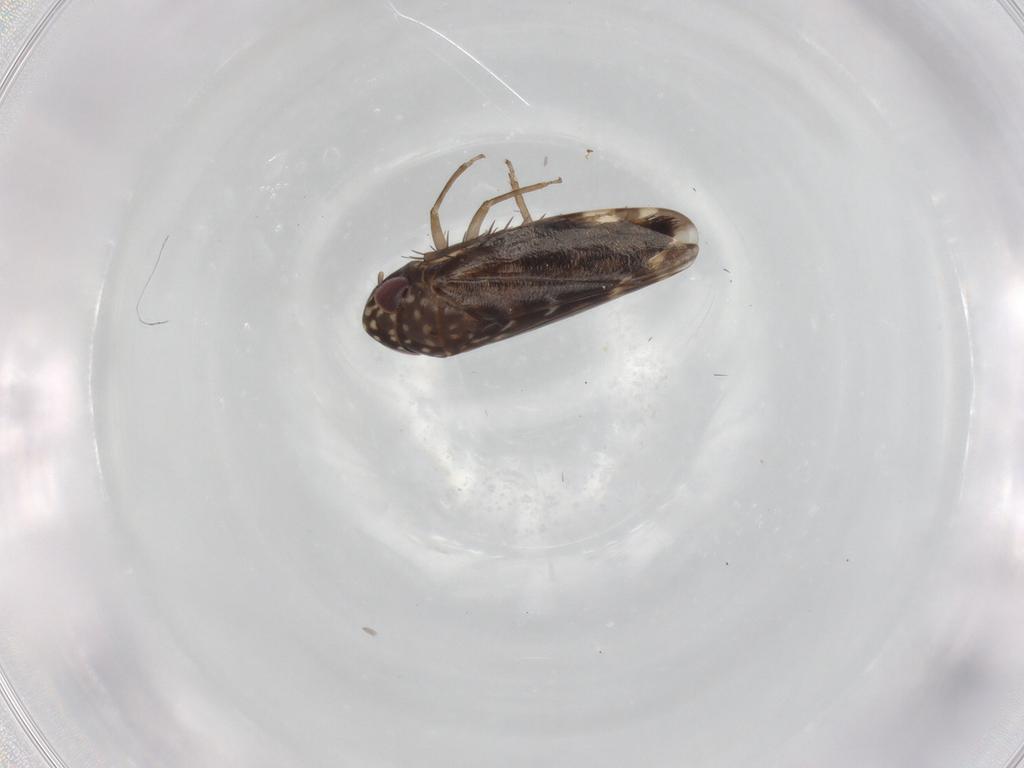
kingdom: Animalia
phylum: Arthropoda
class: Insecta
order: Hemiptera
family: Cicadellidae
